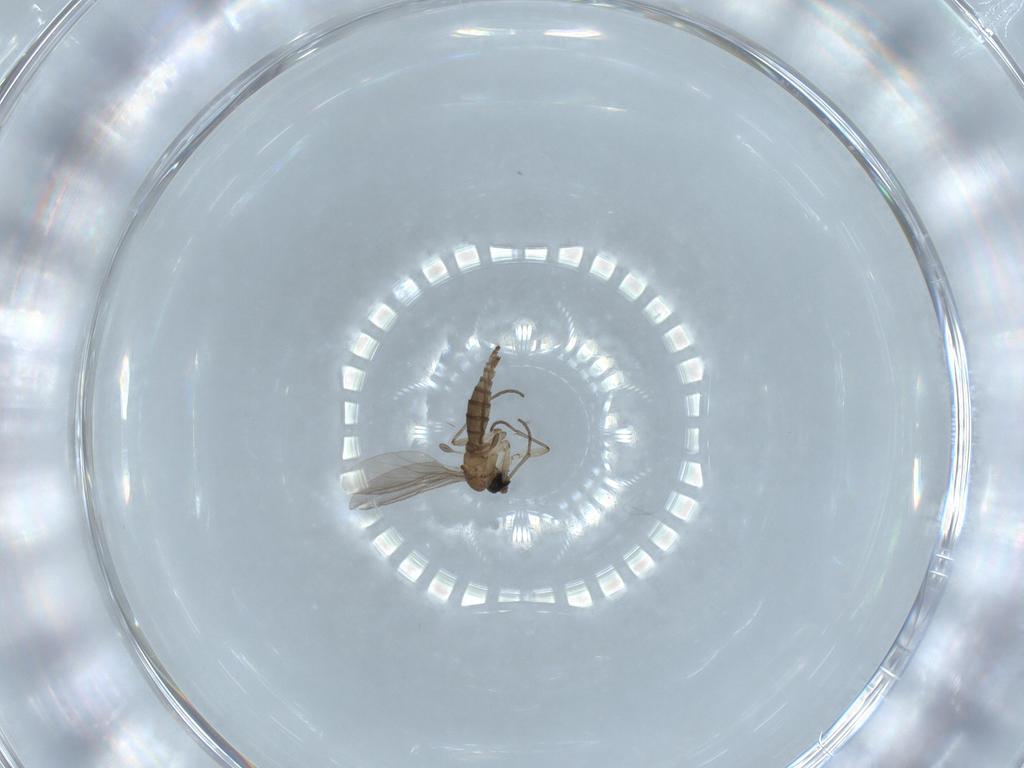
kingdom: Animalia
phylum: Arthropoda
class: Insecta
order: Diptera
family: Sciaridae
